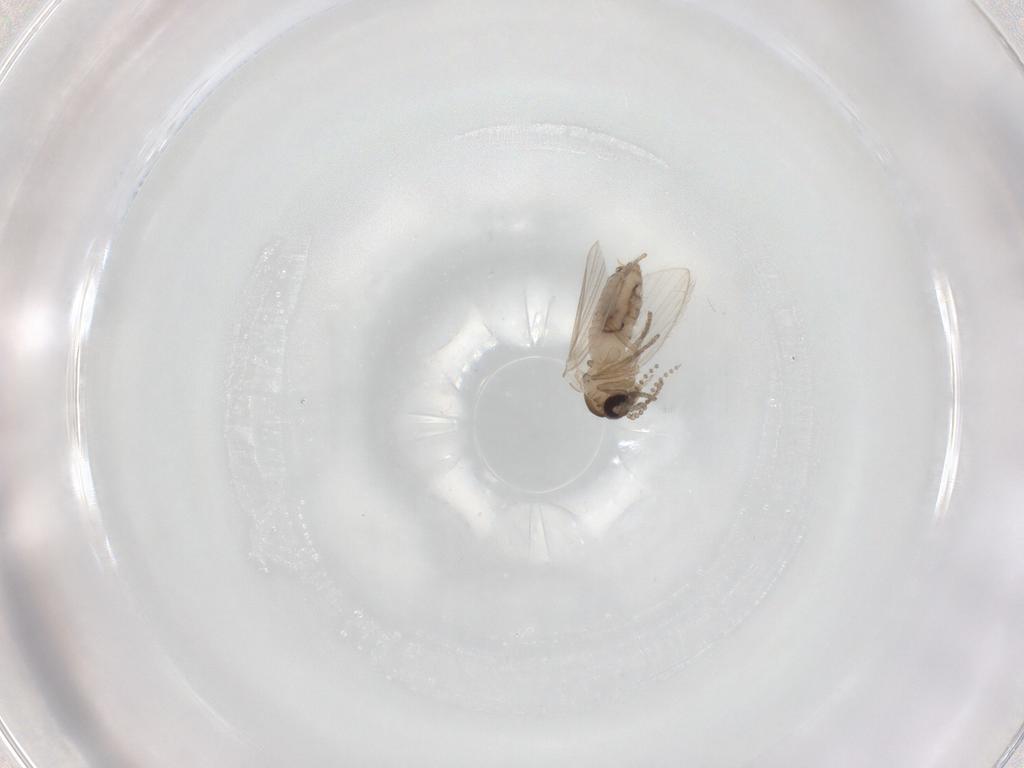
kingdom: Animalia
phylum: Arthropoda
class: Insecta
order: Diptera
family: Psychodidae
